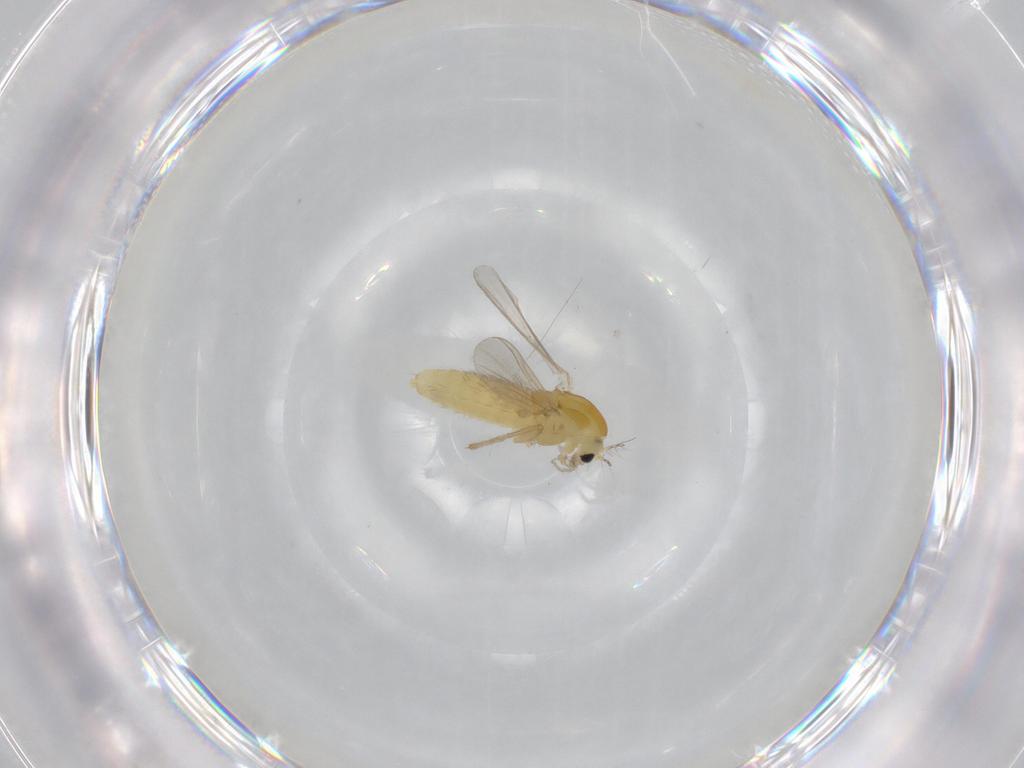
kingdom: Animalia
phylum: Arthropoda
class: Insecta
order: Diptera
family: Chironomidae
